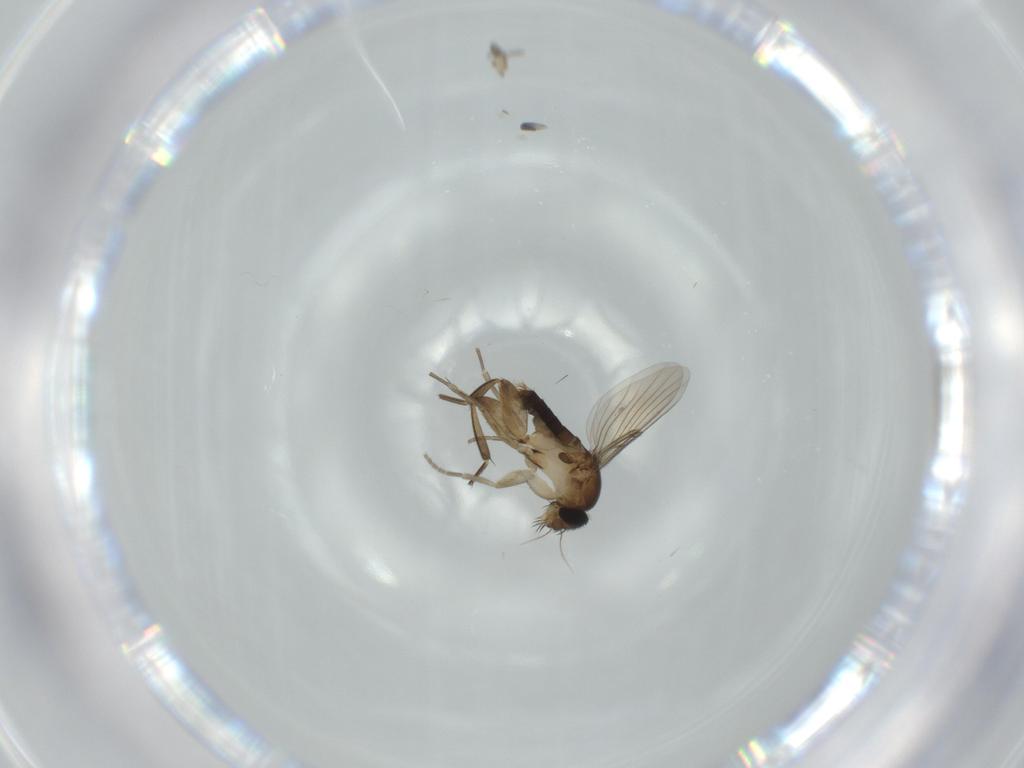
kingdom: Animalia
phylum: Arthropoda
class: Insecta
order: Diptera
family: Phoridae
